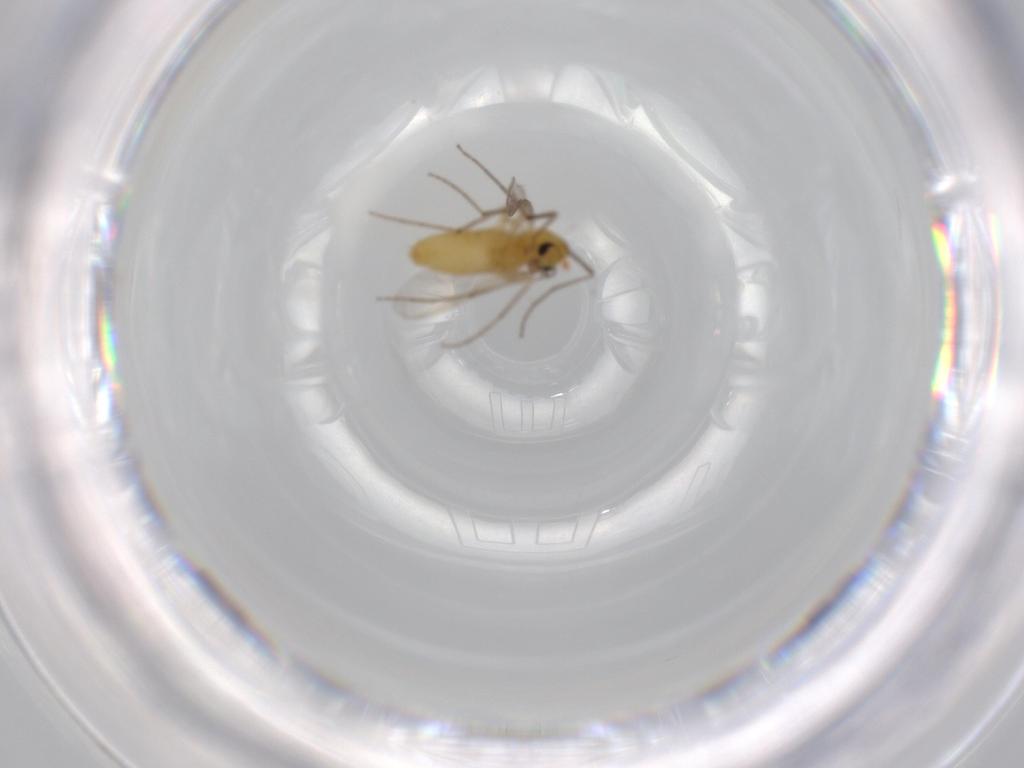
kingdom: Animalia
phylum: Arthropoda
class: Insecta
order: Diptera
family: Chironomidae
